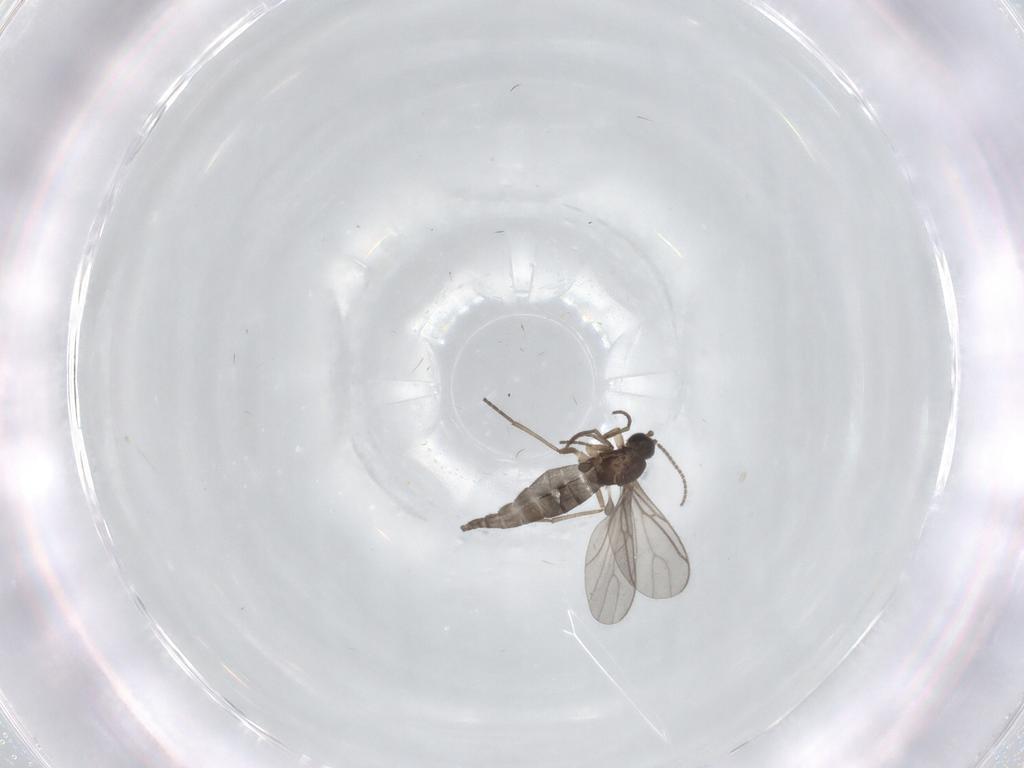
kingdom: Animalia
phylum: Arthropoda
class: Insecta
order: Diptera
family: Sciaridae
